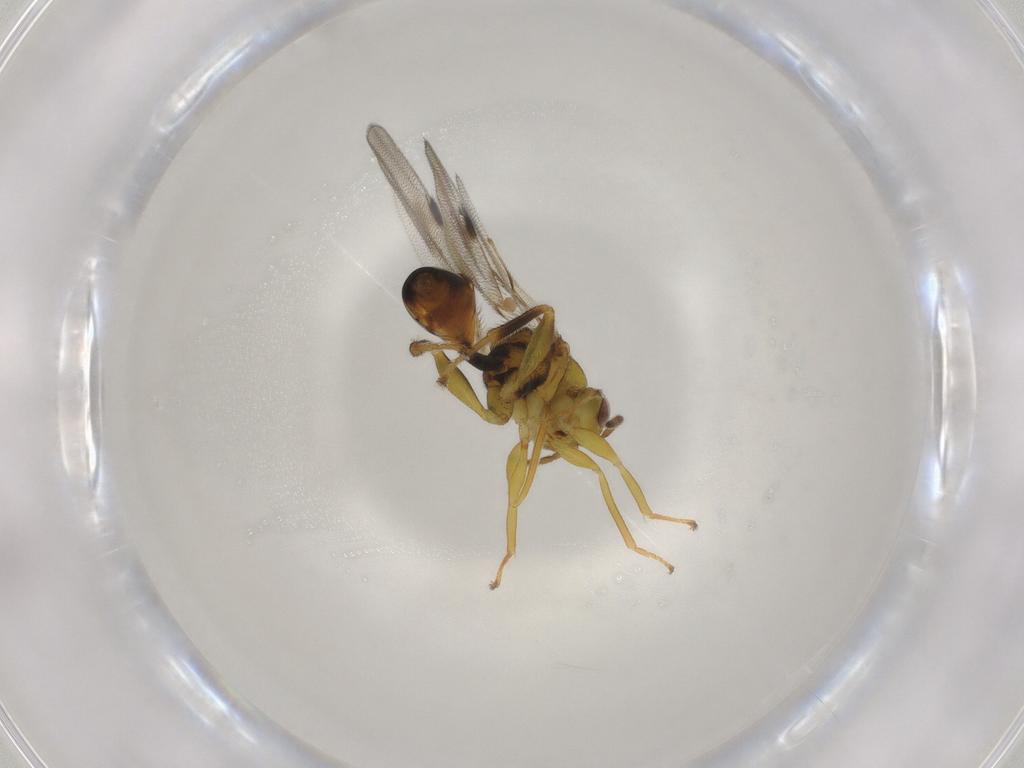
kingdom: Animalia
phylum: Arthropoda
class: Insecta
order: Hymenoptera
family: Eurytomidae
